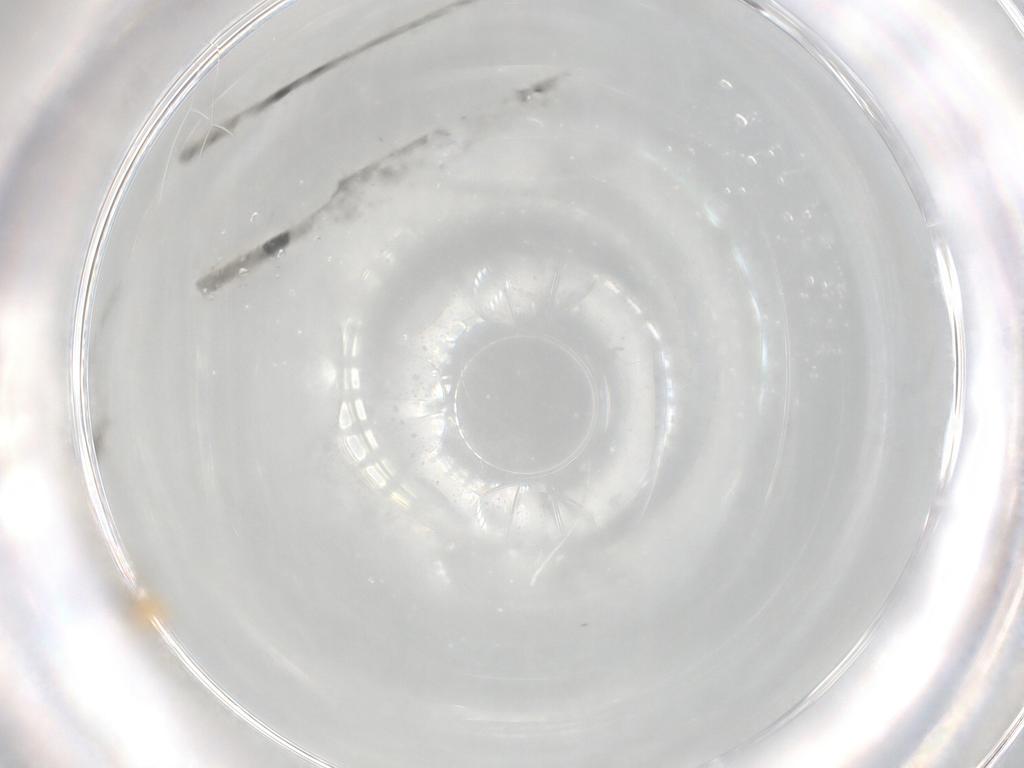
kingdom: Animalia
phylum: Arthropoda
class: Insecta
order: Diptera
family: Cecidomyiidae
